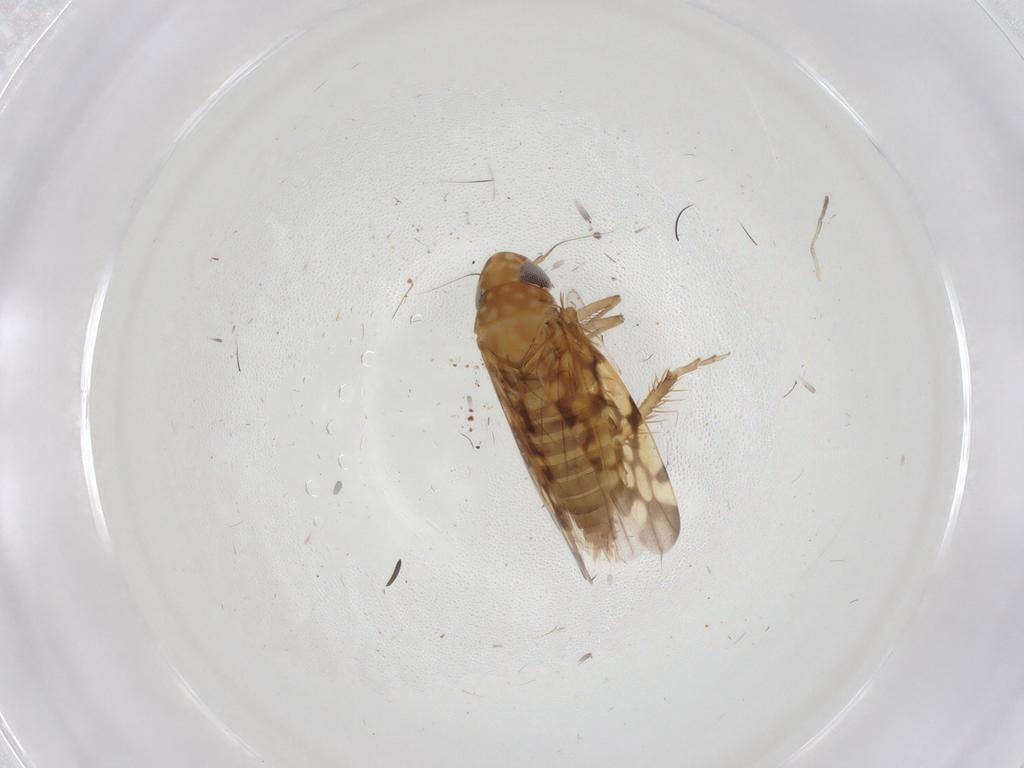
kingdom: Animalia
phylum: Arthropoda
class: Insecta
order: Hemiptera
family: Cicadellidae
